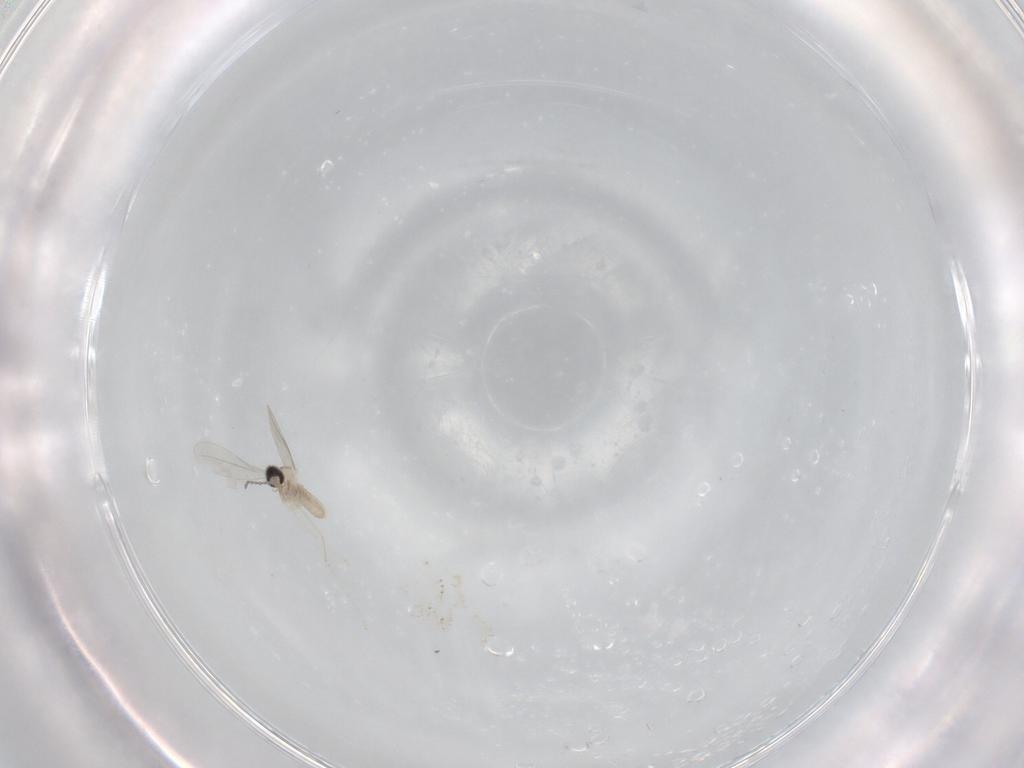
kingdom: Animalia
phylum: Arthropoda
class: Insecta
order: Diptera
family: Cecidomyiidae
